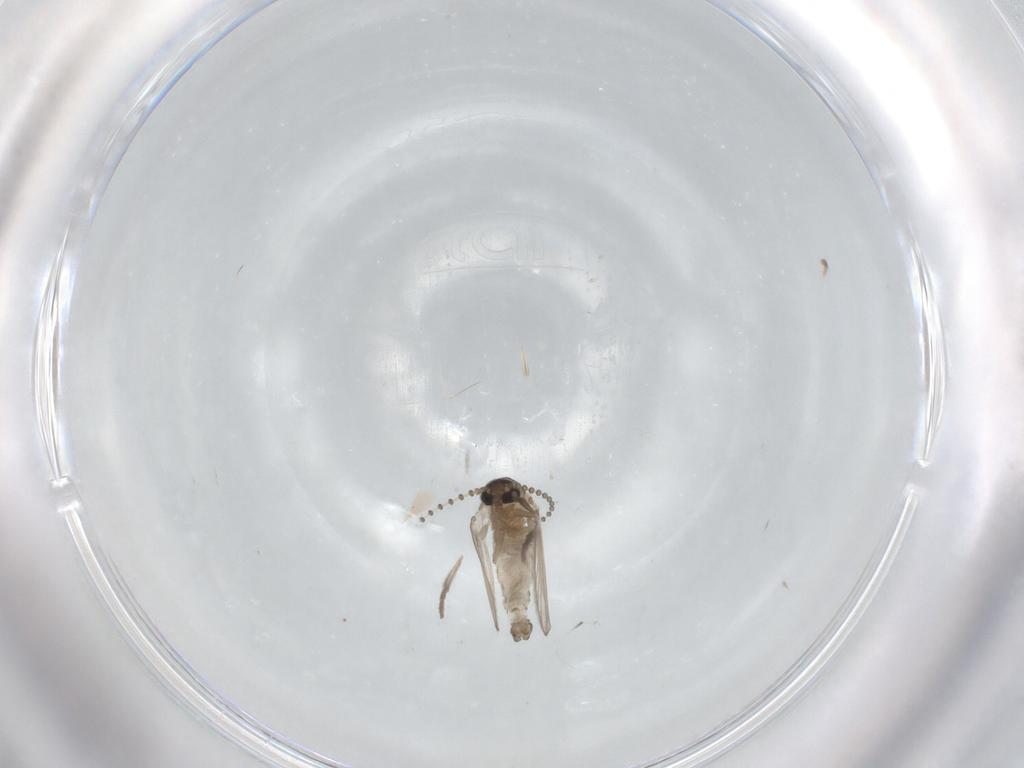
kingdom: Animalia
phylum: Arthropoda
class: Insecta
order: Diptera
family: Psychodidae
